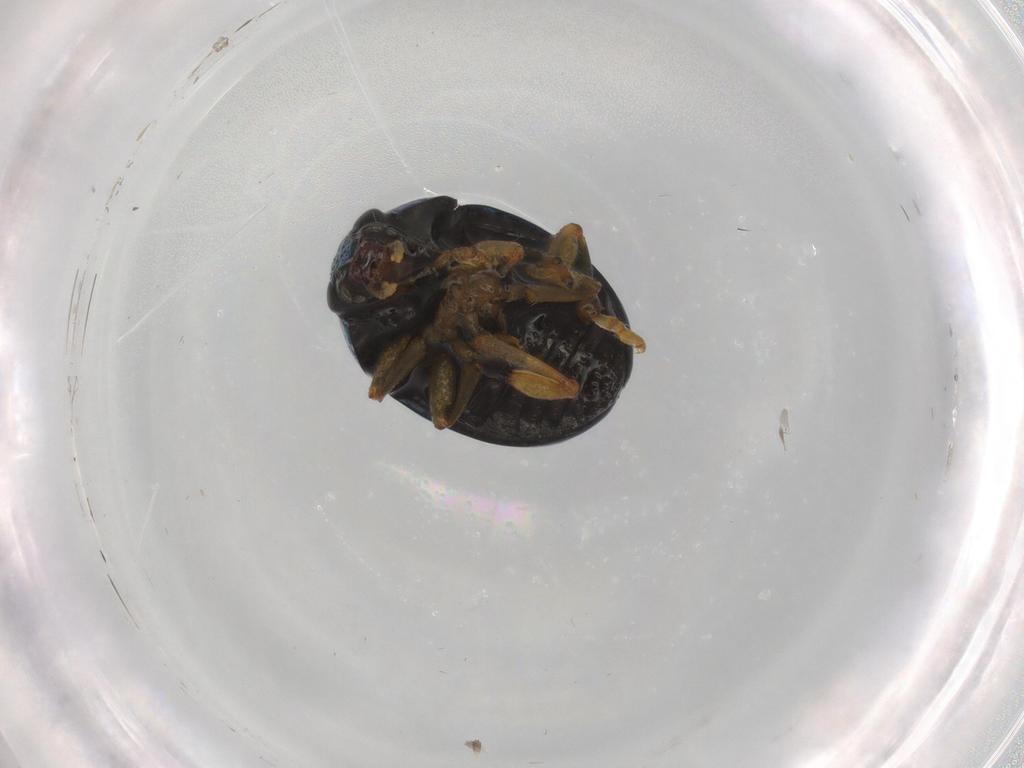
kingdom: Animalia
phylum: Arthropoda
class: Insecta
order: Coleoptera
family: Chrysomelidae
